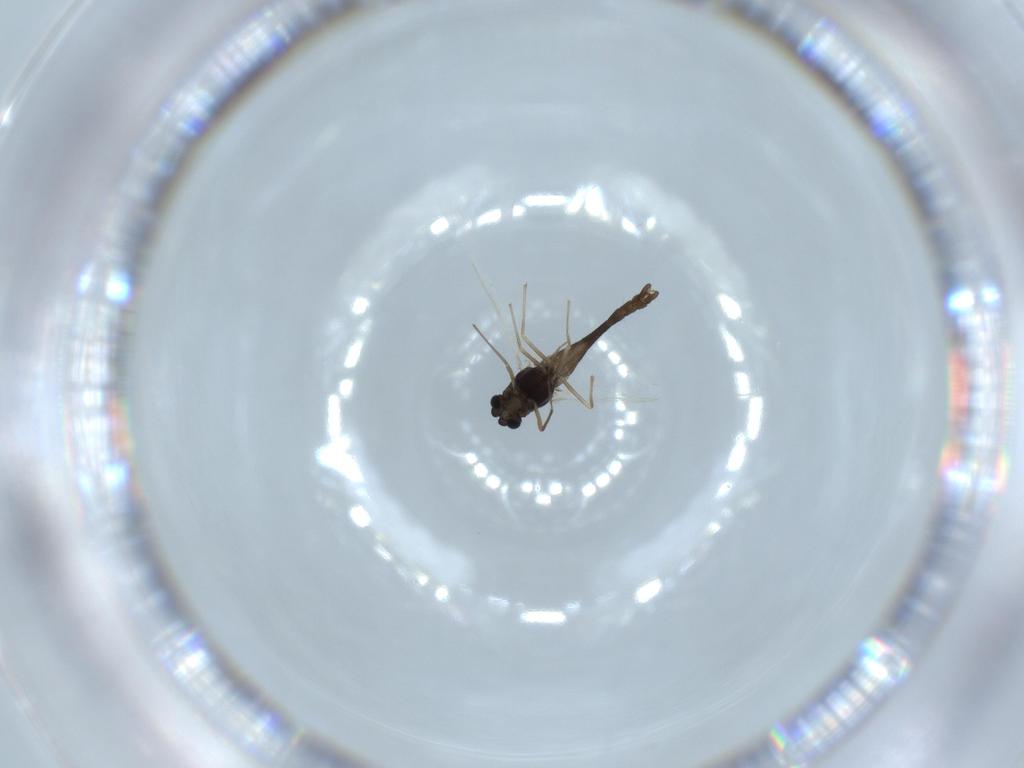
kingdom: Animalia
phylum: Arthropoda
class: Insecta
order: Diptera
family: Chironomidae
